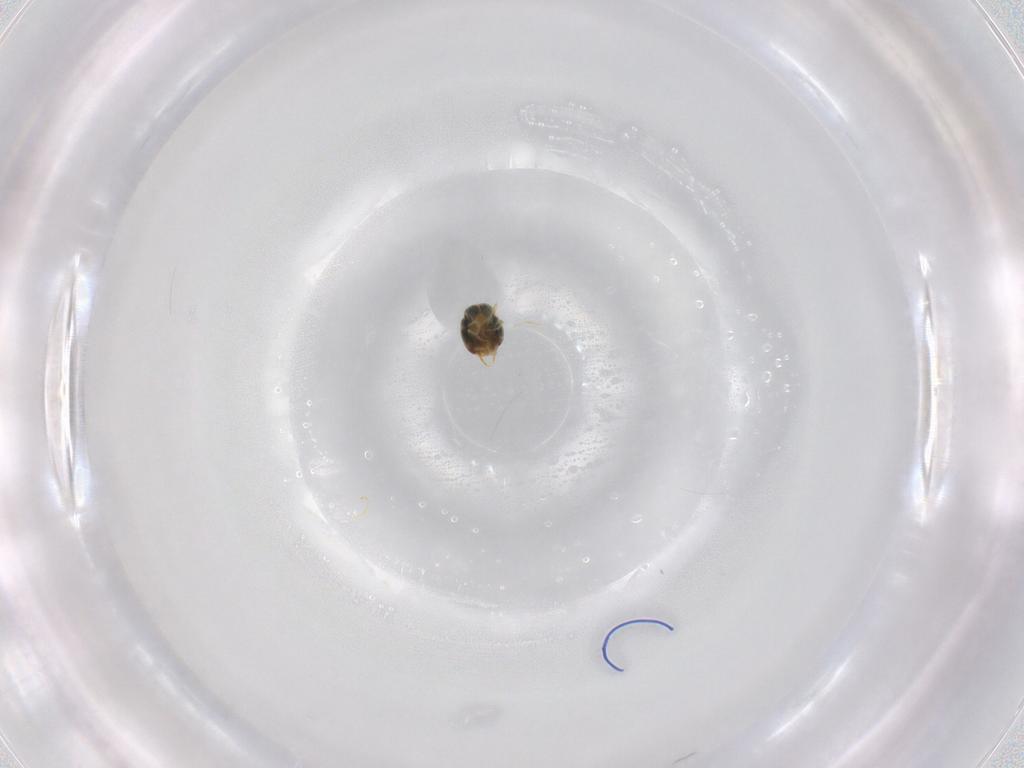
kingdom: Animalia
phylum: Arthropoda
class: Arachnida
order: Trombidiformes
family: Tetranychidae
